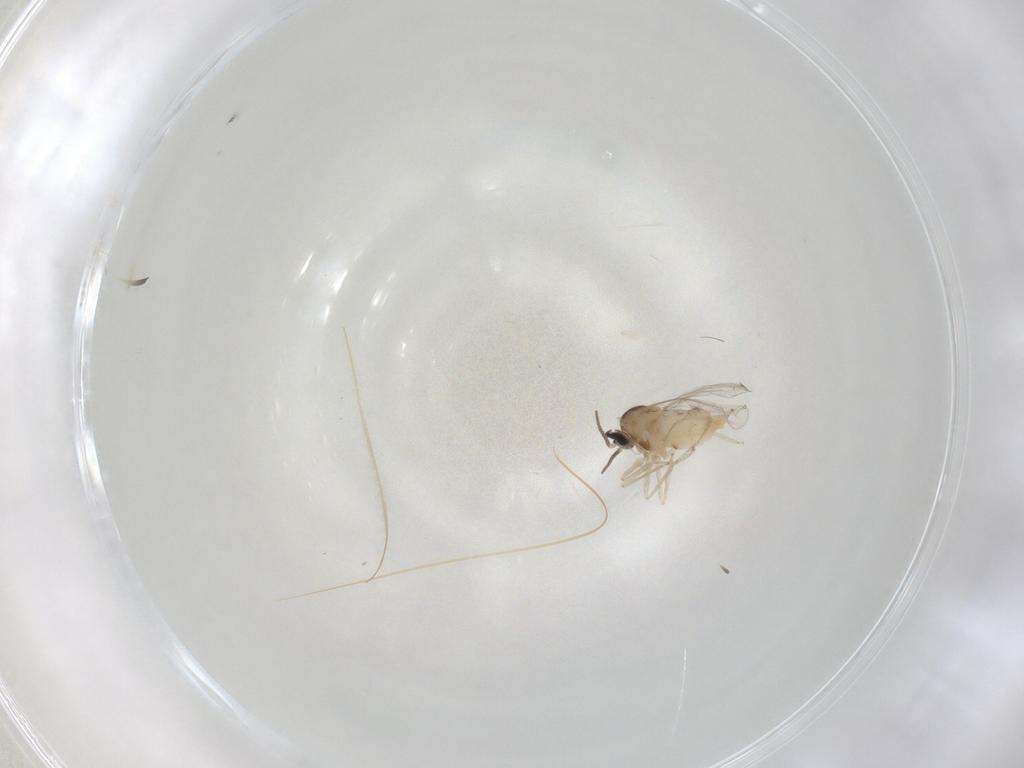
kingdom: Animalia
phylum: Arthropoda
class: Insecta
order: Diptera
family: Cecidomyiidae
